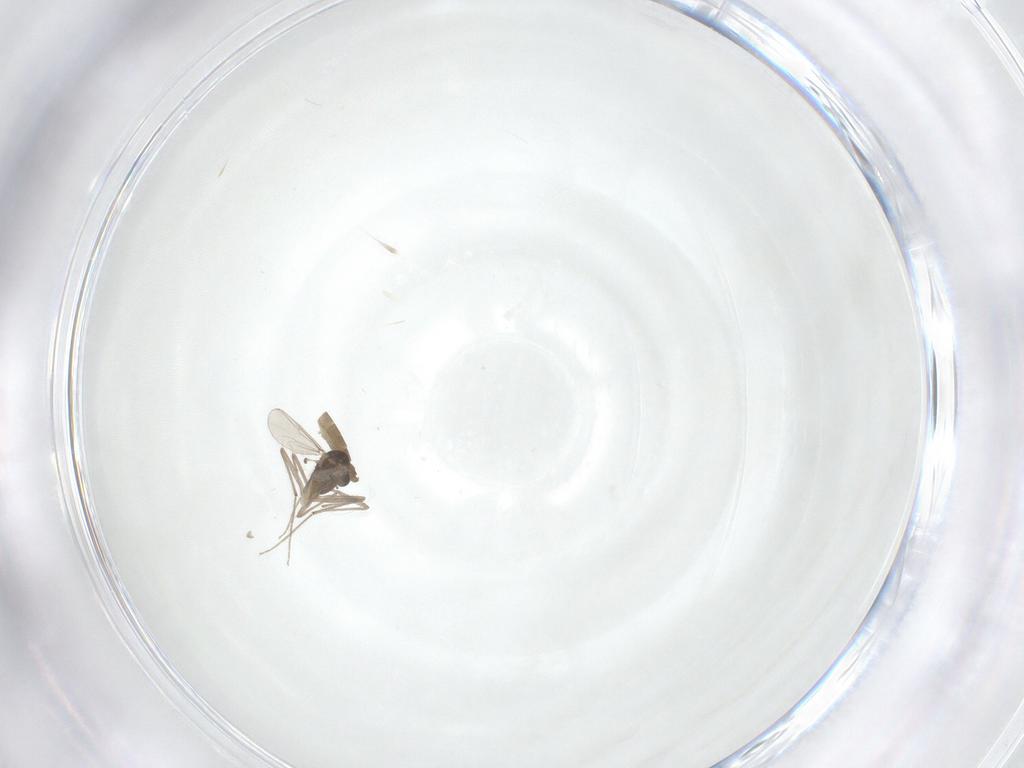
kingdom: Animalia
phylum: Arthropoda
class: Insecta
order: Diptera
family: Chironomidae
